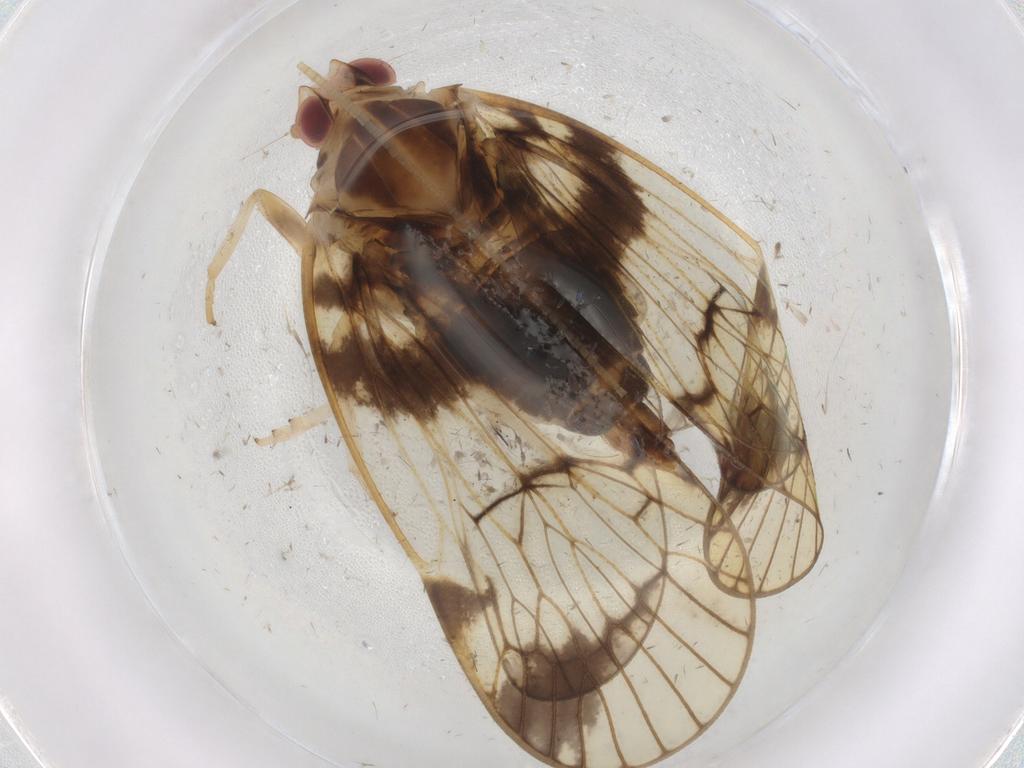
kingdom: Animalia
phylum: Arthropoda
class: Insecta
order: Hemiptera
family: Cixiidae
